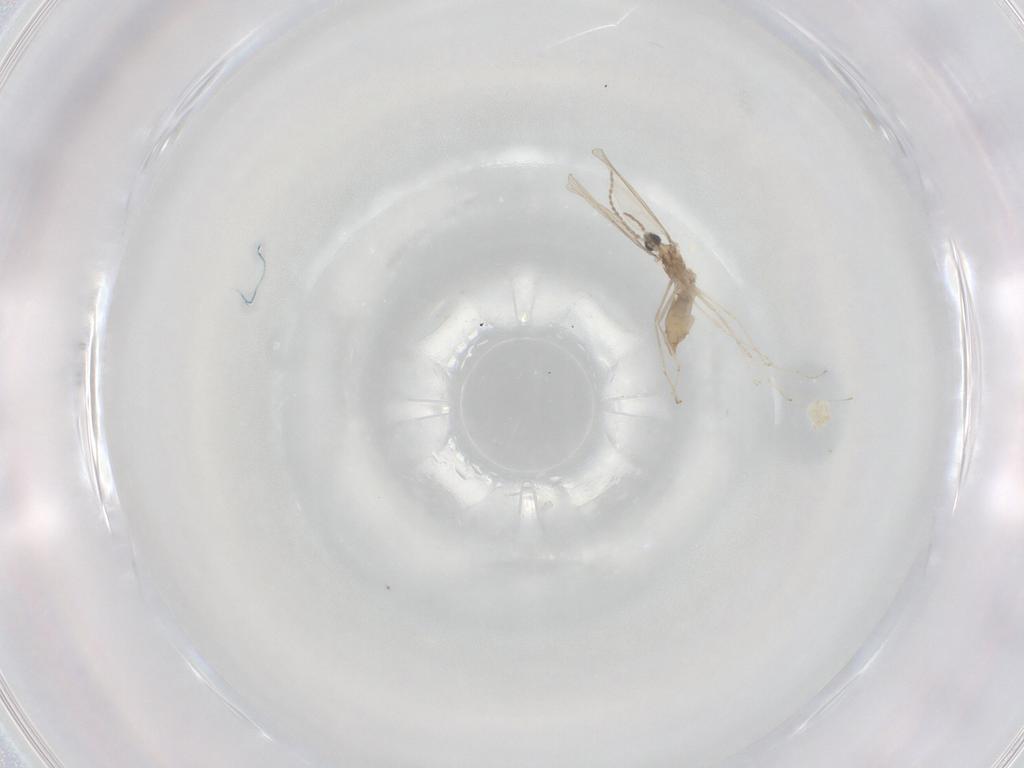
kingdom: Animalia
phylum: Arthropoda
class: Insecta
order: Diptera
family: Cecidomyiidae
